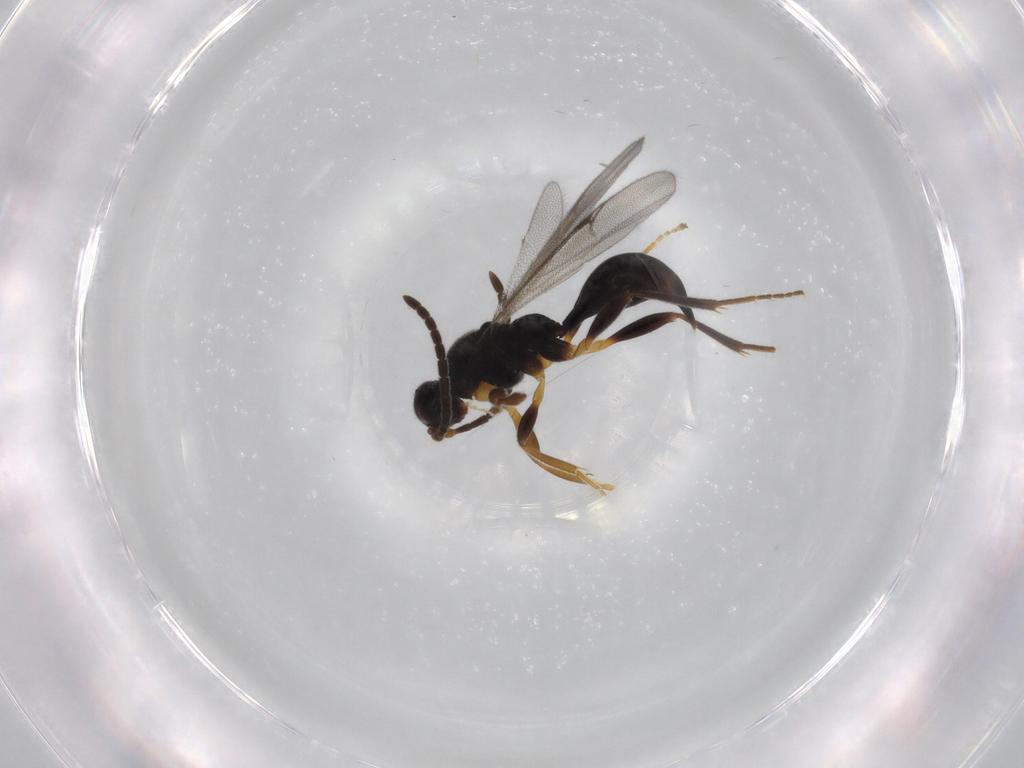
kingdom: Animalia
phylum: Arthropoda
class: Insecta
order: Hymenoptera
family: Proctotrupidae
